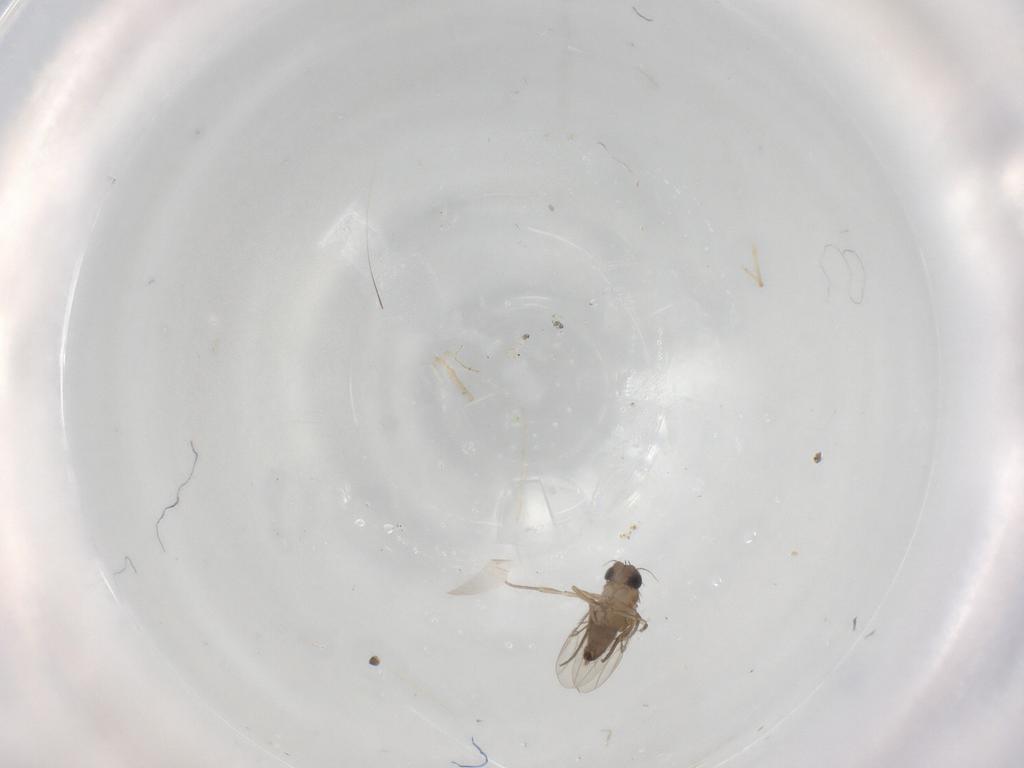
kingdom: Animalia
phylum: Arthropoda
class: Insecta
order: Diptera
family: Phoridae
